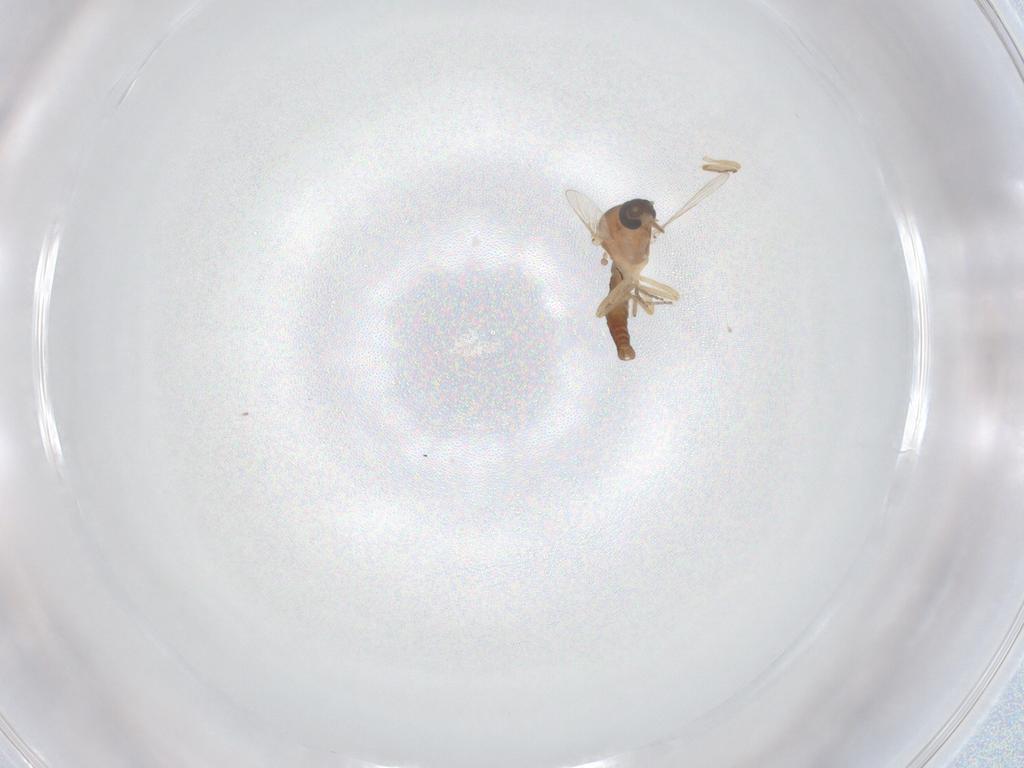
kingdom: Animalia
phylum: Arthropoda
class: Insecta
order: Diptera
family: Ceratopogonidae
